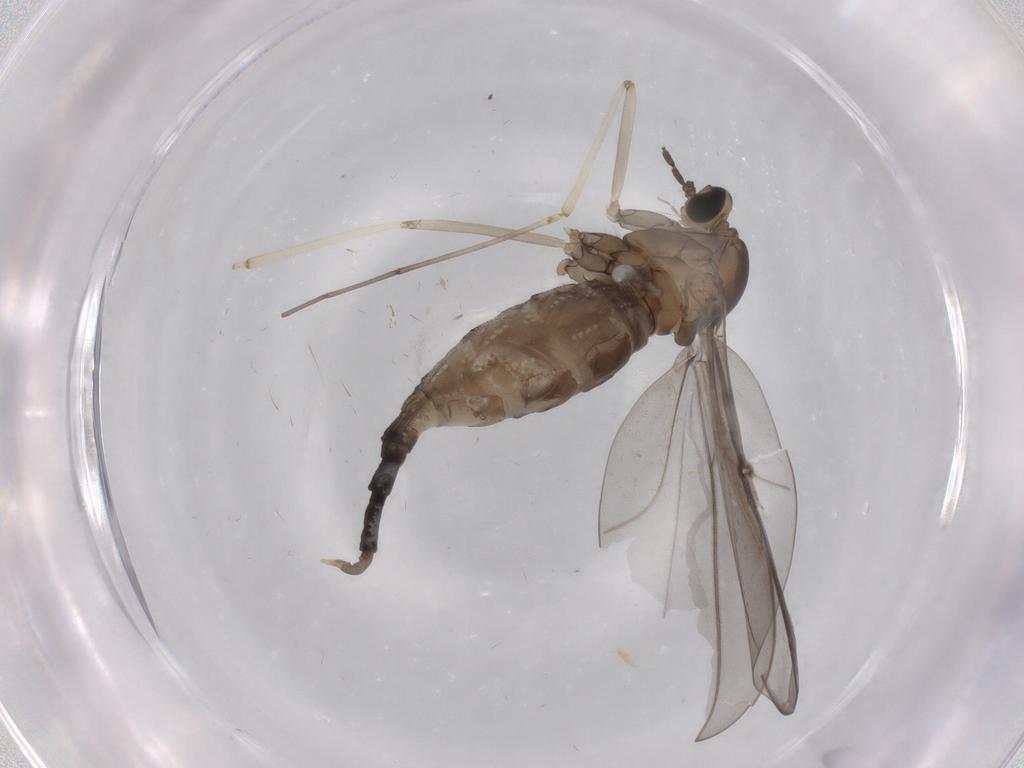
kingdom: Animalia
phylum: Arthropoda
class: Insecta
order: Diptera
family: Cecidomyiidae
